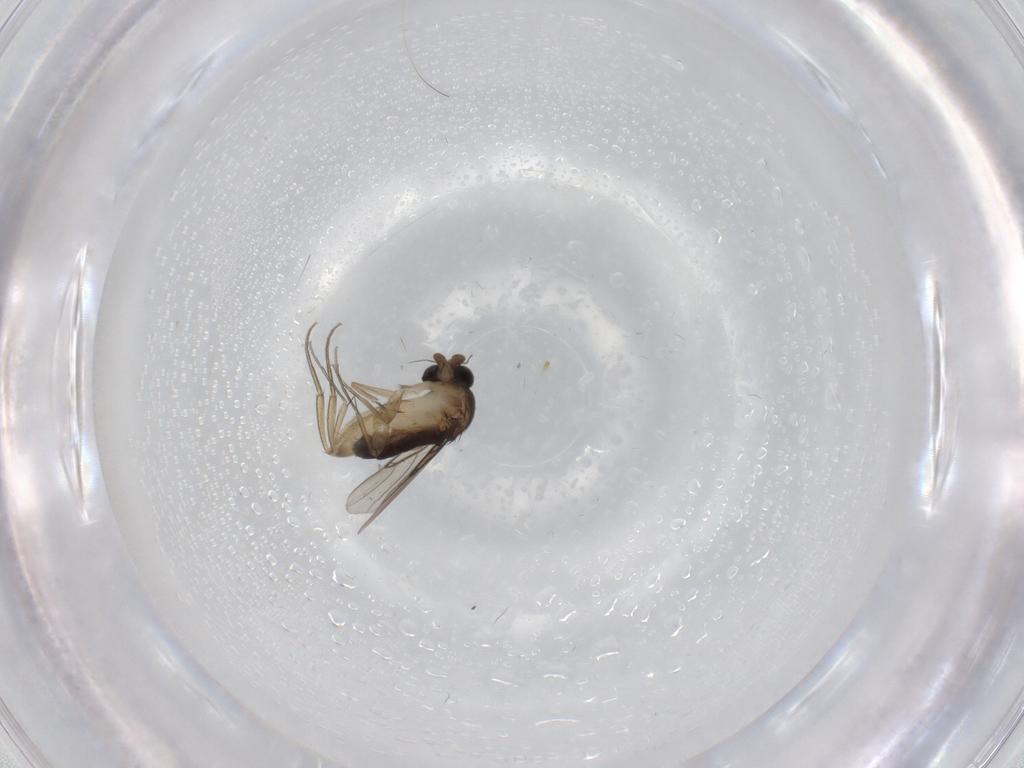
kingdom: Animalia
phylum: Arthropoda
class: Insecta
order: Diptera
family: Phoridae
